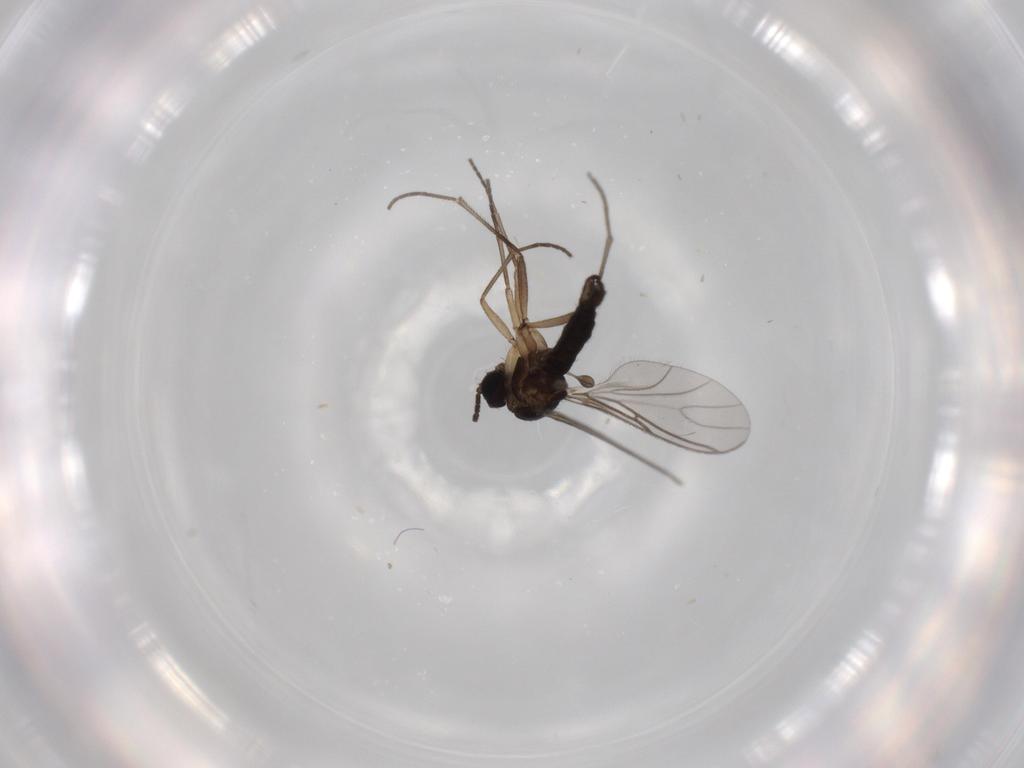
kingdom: Animalia
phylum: Arthropoda
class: Insecta
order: Diptera
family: Sciaridae
